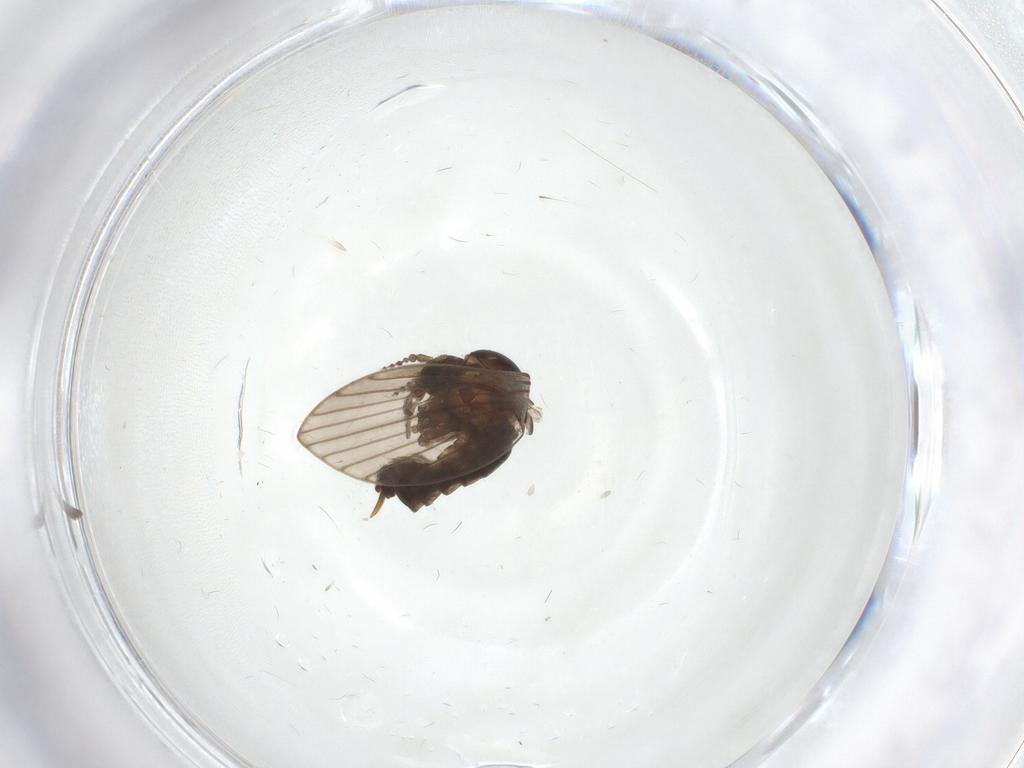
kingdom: Animalia
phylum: Arthropoda
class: Insecta
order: Diptera
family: Psychodidae
